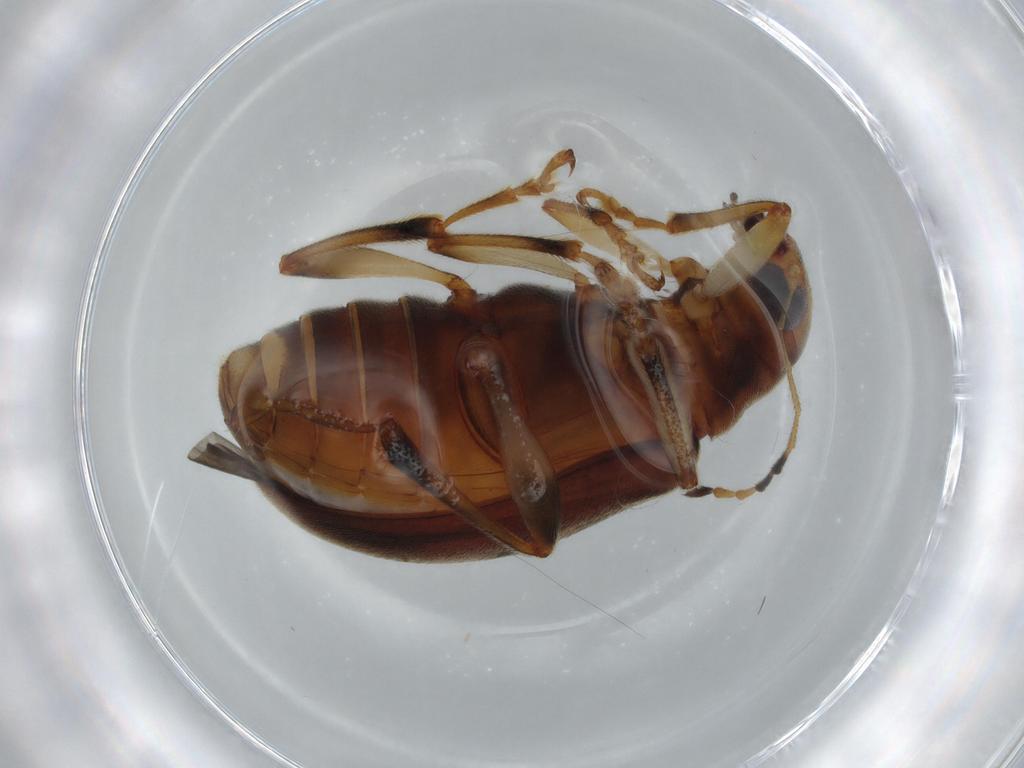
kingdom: Animalia
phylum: Arthropoda
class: Insecta
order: Coleoptera
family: Chrysomelidae
